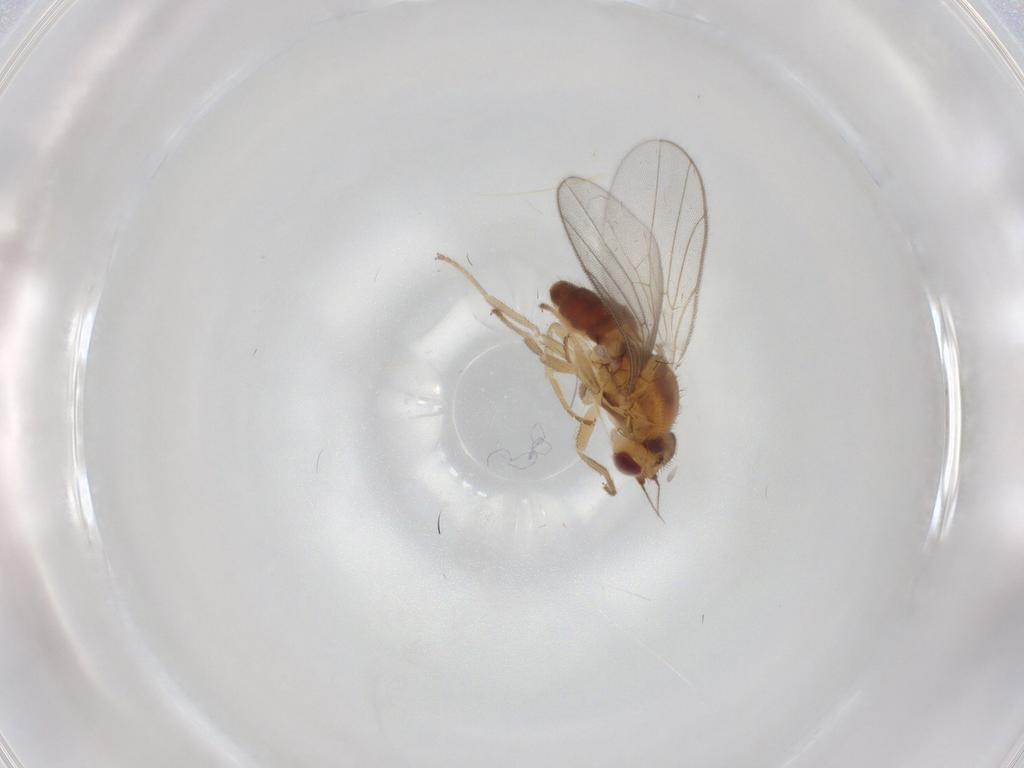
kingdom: Animalia
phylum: Arthropoda
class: Insecta
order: Diptera
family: Chloropidae
